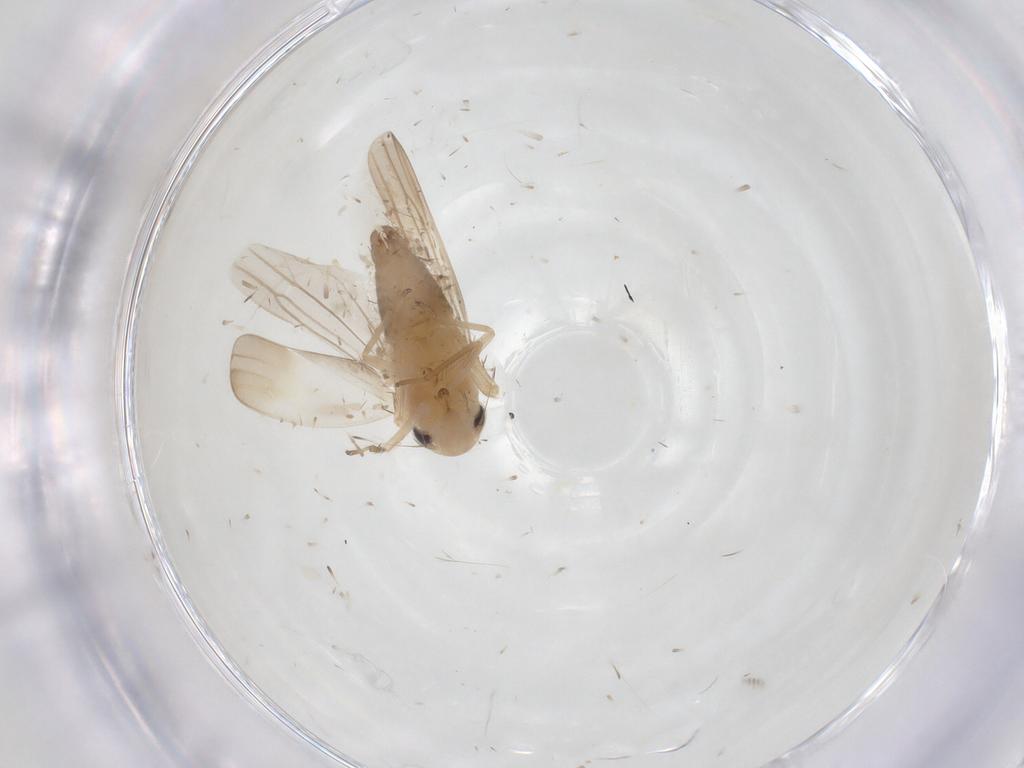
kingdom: Animalia
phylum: Arthropoda
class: Insecta
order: Hemiptera
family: Cicadellidae
